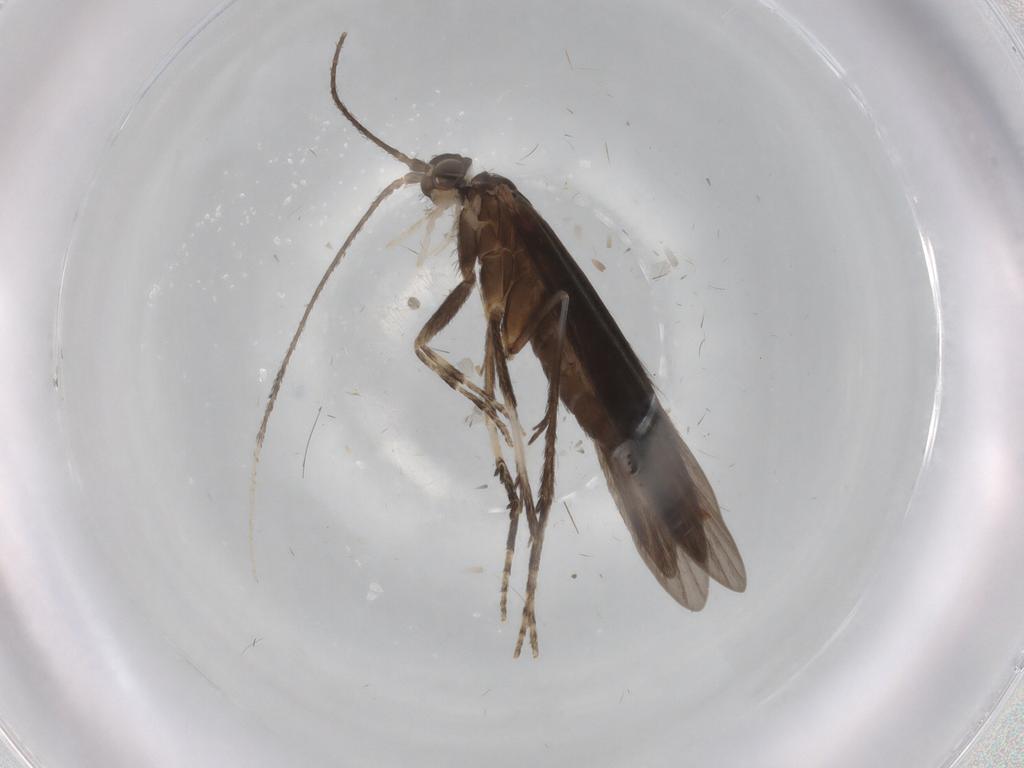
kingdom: Animalia
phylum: Arthropoda
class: Insecta
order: Trichoptera
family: Xiphocentronidae
